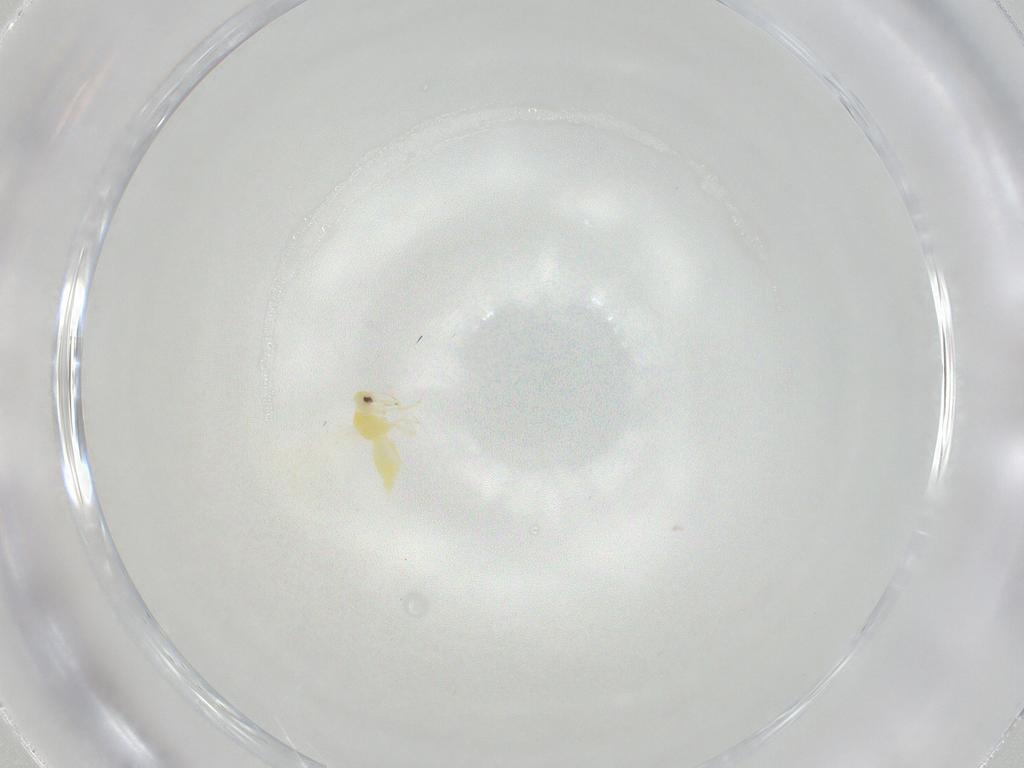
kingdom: Animalia
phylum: Arthropoda
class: Insecta
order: Hemiptera
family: Aleyrodidae
